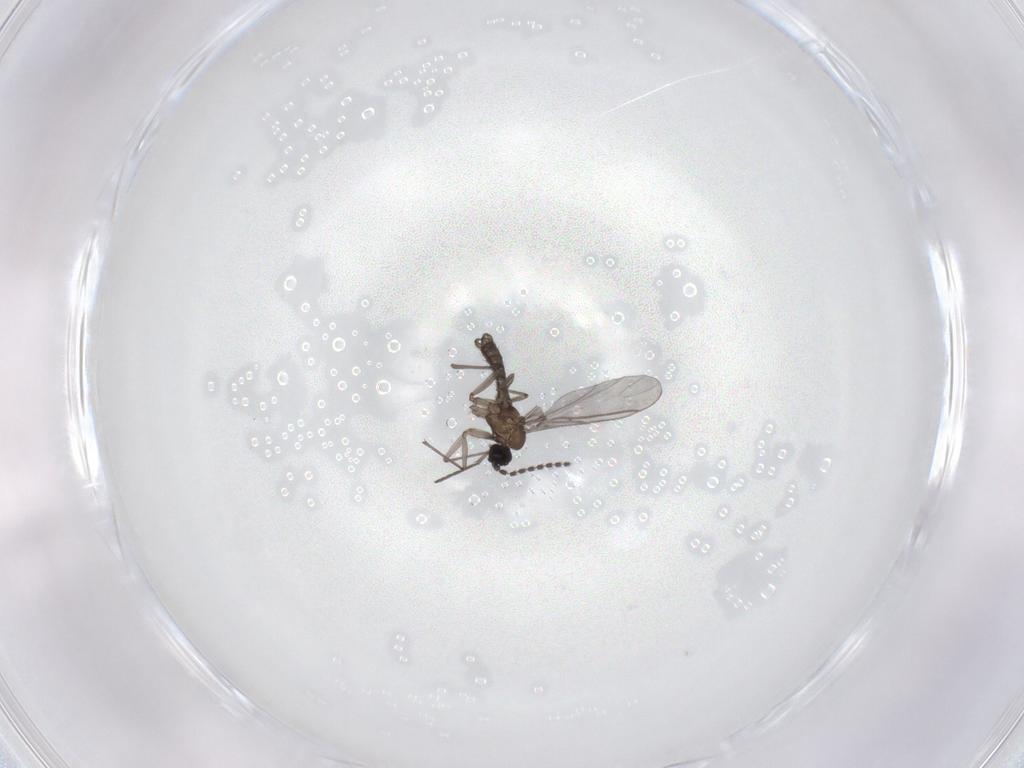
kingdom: Animalia
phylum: Arthropoda
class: Insecta
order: Diptera
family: Sciaridae
